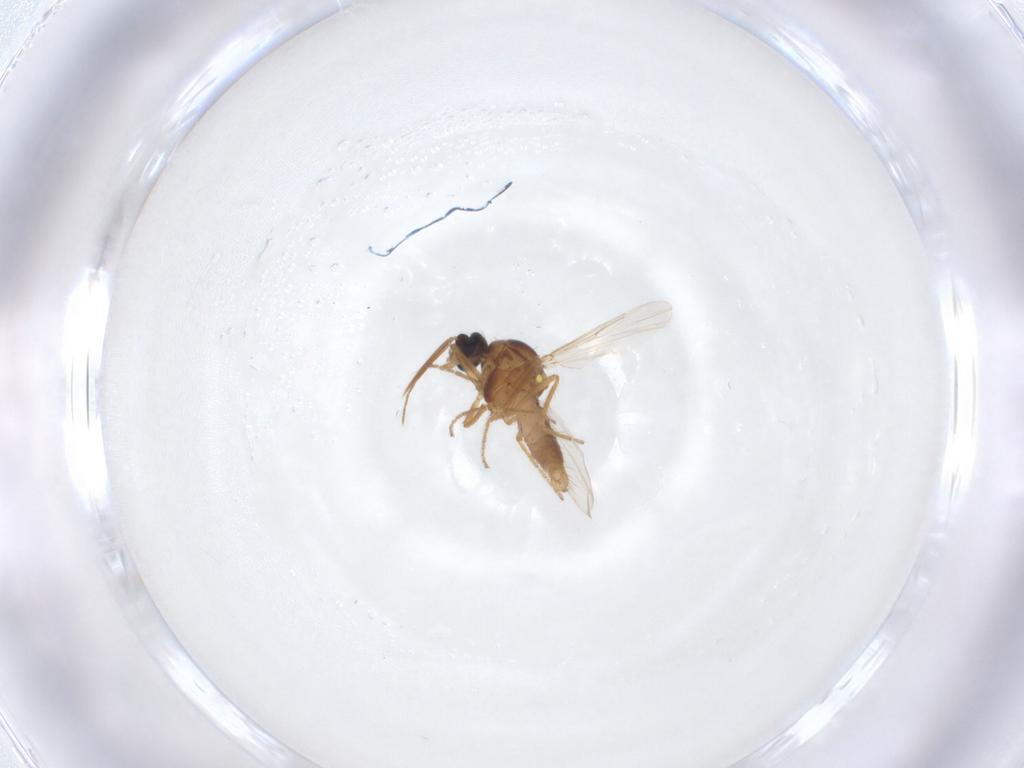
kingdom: Animalia
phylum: Arthropoda
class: Insecta
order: Diptera
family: Ceratopogonidae
